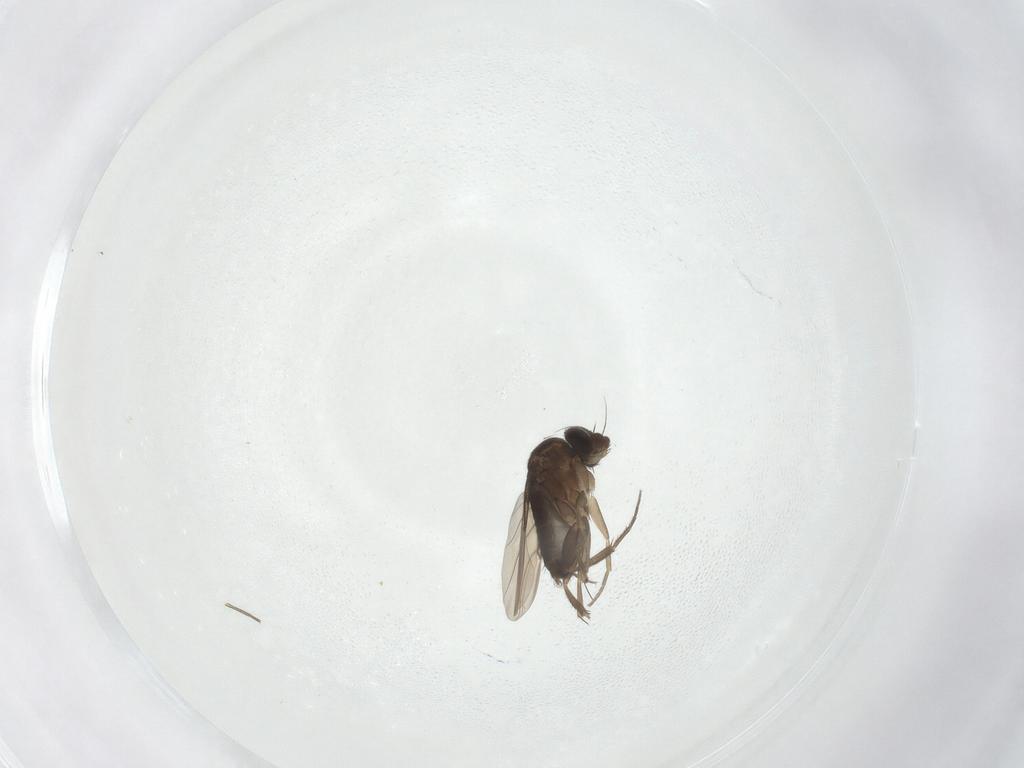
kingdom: Animalia
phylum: Arthropoda
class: Insecta
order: Diptera
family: Phoridae
